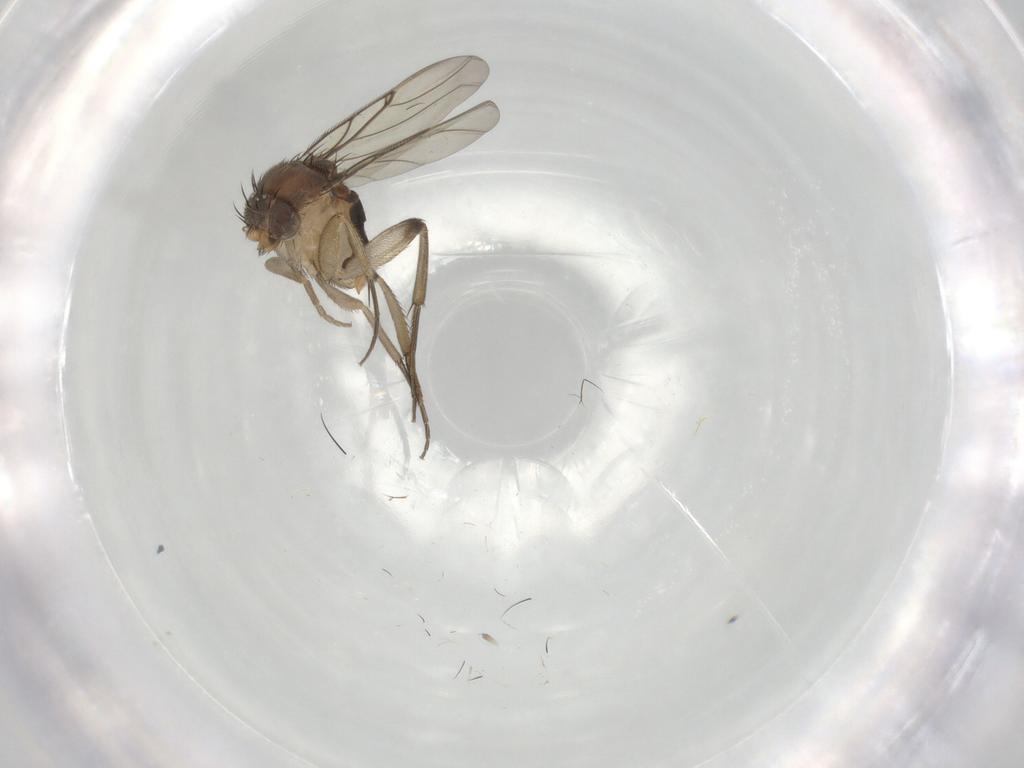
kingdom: Animalia
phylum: Arthropoda
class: Insecta
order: Diptera
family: Phoridae
